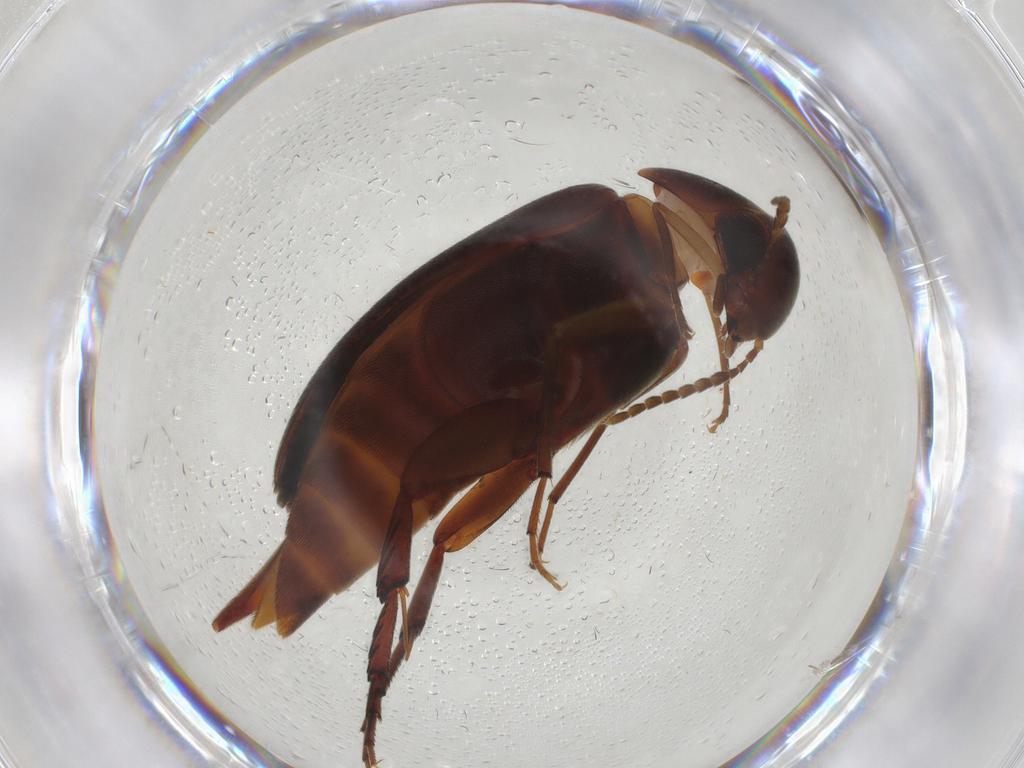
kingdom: Animalia
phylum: Arthropoda
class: Insecta
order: Coleoptera
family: Mordellidae
